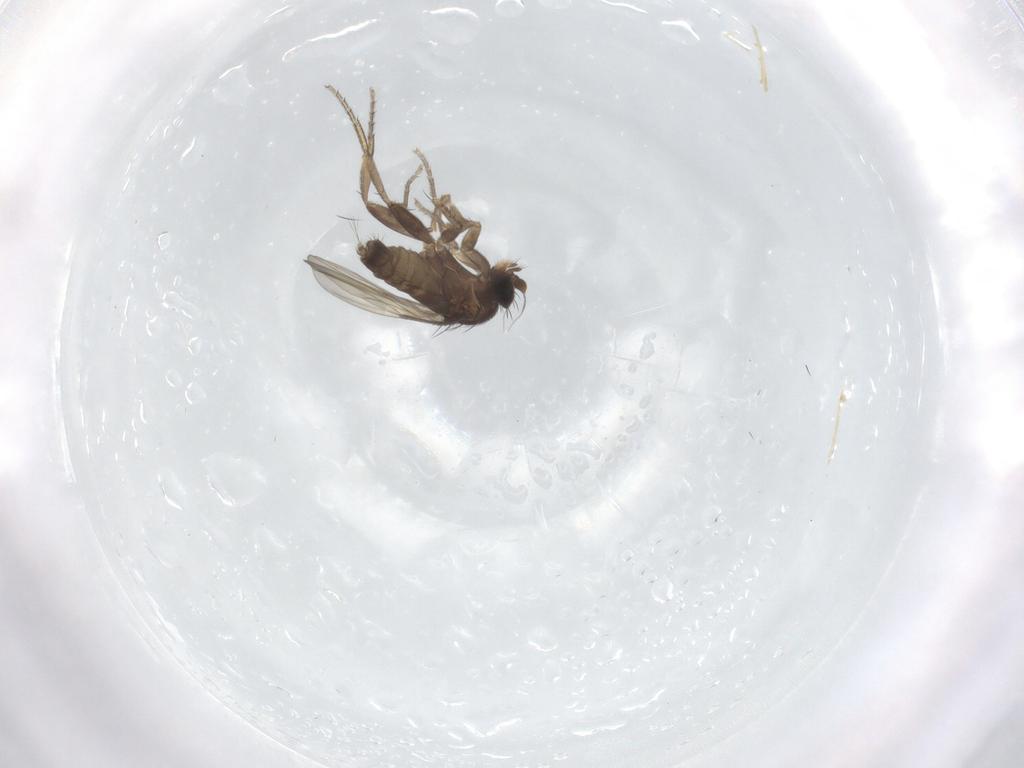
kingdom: Animalia
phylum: Arthropoda
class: Insecta
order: Diptera
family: Phoridae
